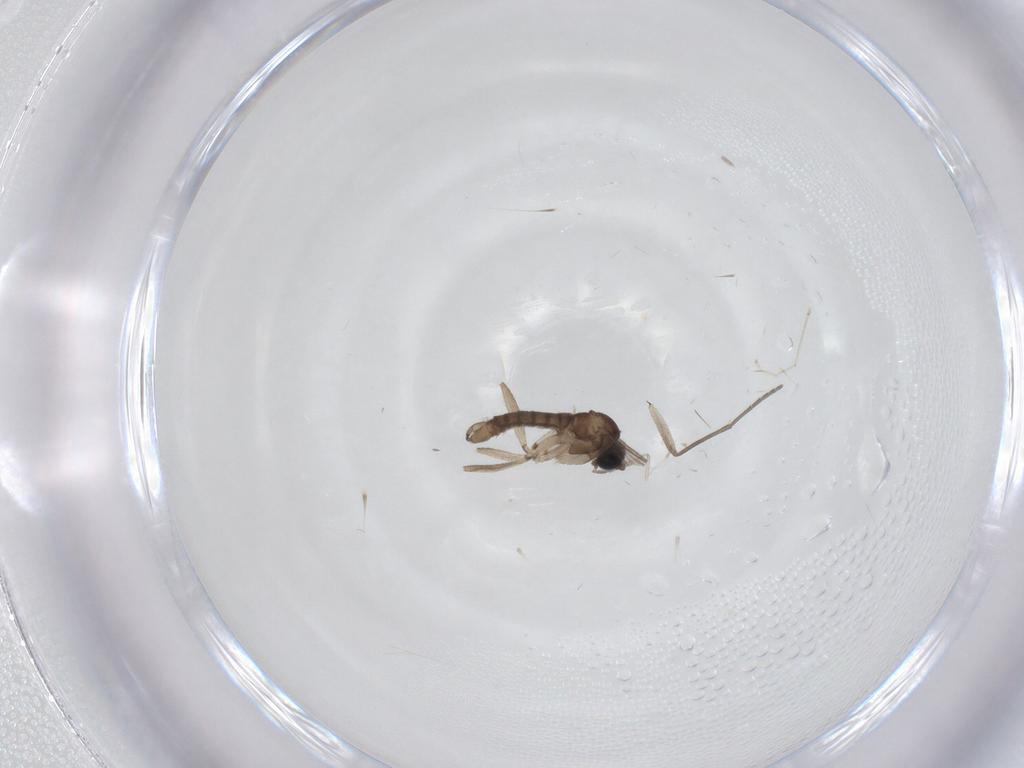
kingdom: Animalia
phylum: Arthropoda
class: Insecta
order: Diptera
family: Sciaridae
